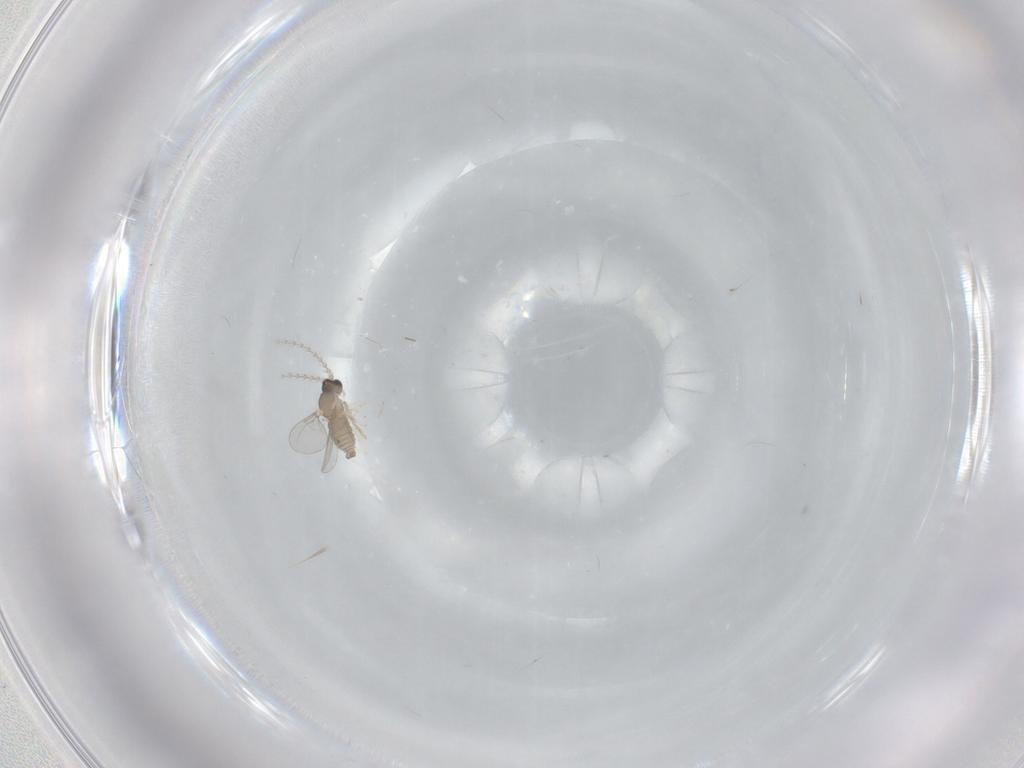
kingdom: Animalia
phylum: Arthropoda
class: Insecta
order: Diptera
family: Cecidomyiidae
